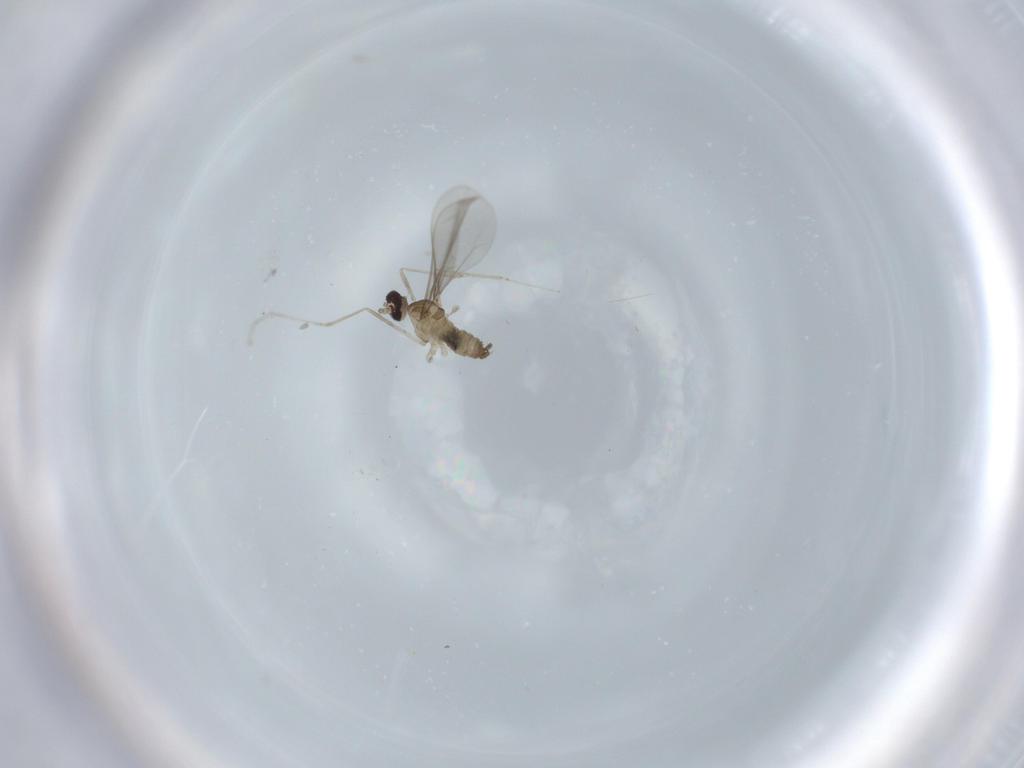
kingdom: Animalia
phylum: Arthropoda
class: Insecta
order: Diptera
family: Cecidomyiidae
